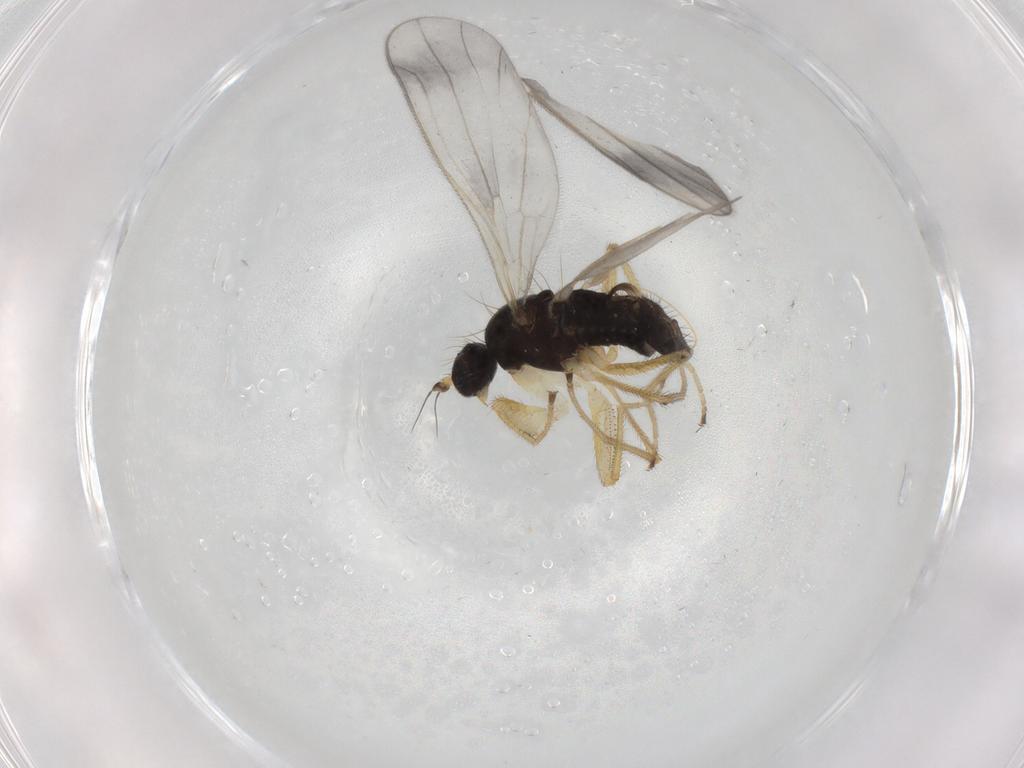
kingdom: Animalia
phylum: Arthropoda
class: Insecta
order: Diptera
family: Empididae
